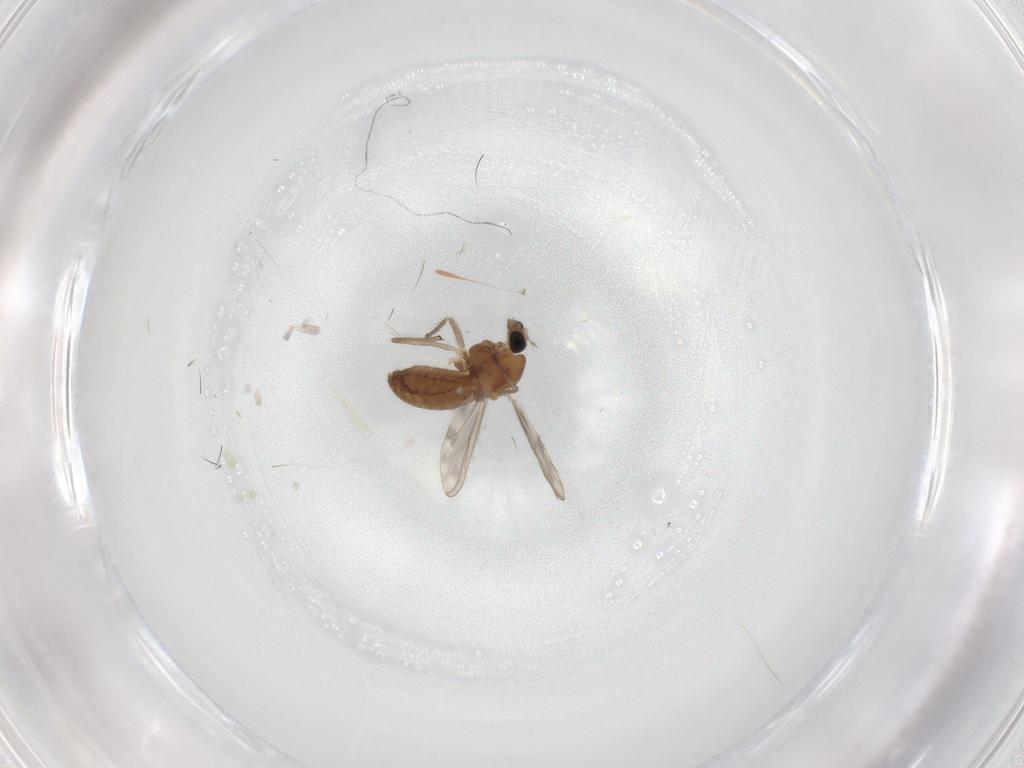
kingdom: Animalia
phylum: Arthropoda
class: Insecta
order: Diptera
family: Chironomidae
